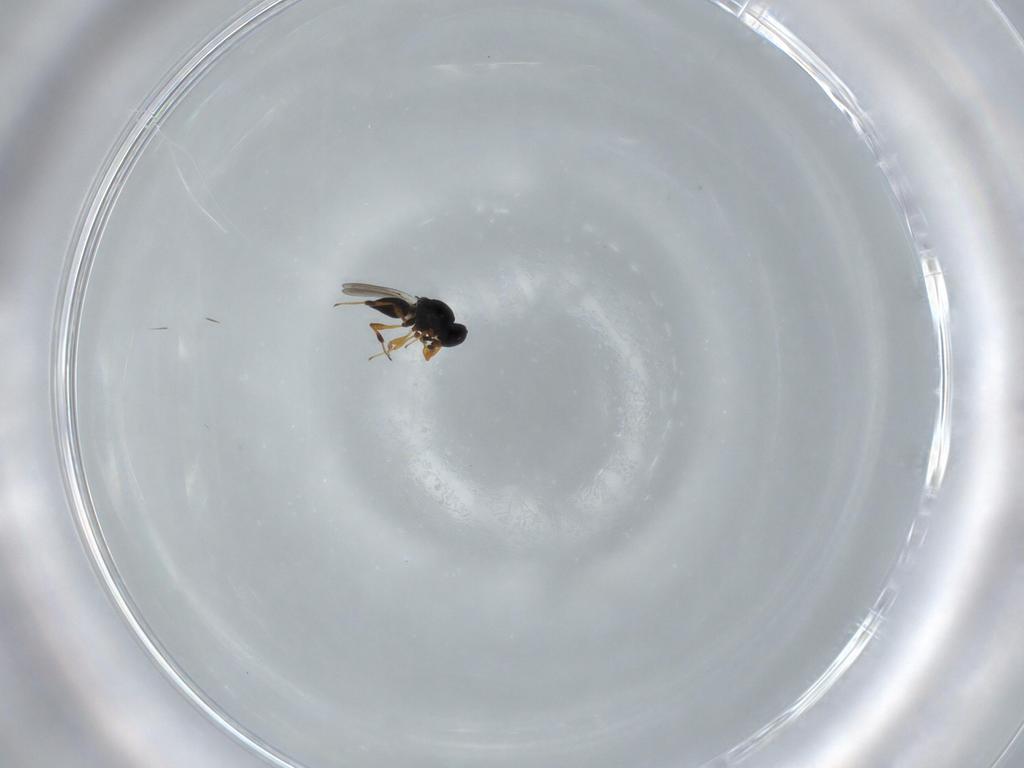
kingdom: Animalia
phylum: Arthropoda
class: Insecta
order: Hymenoptera
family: Platygastridae
